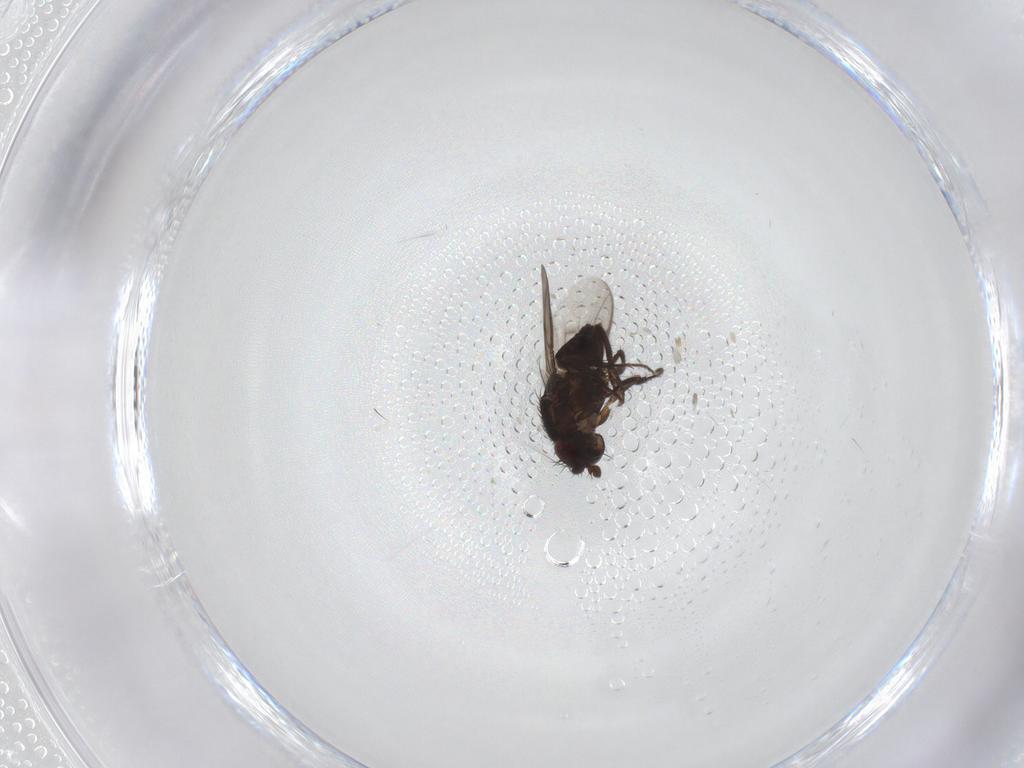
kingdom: Animalia
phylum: Arthropoda
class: Insecta
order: Diptera
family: Sphaeroceridae
